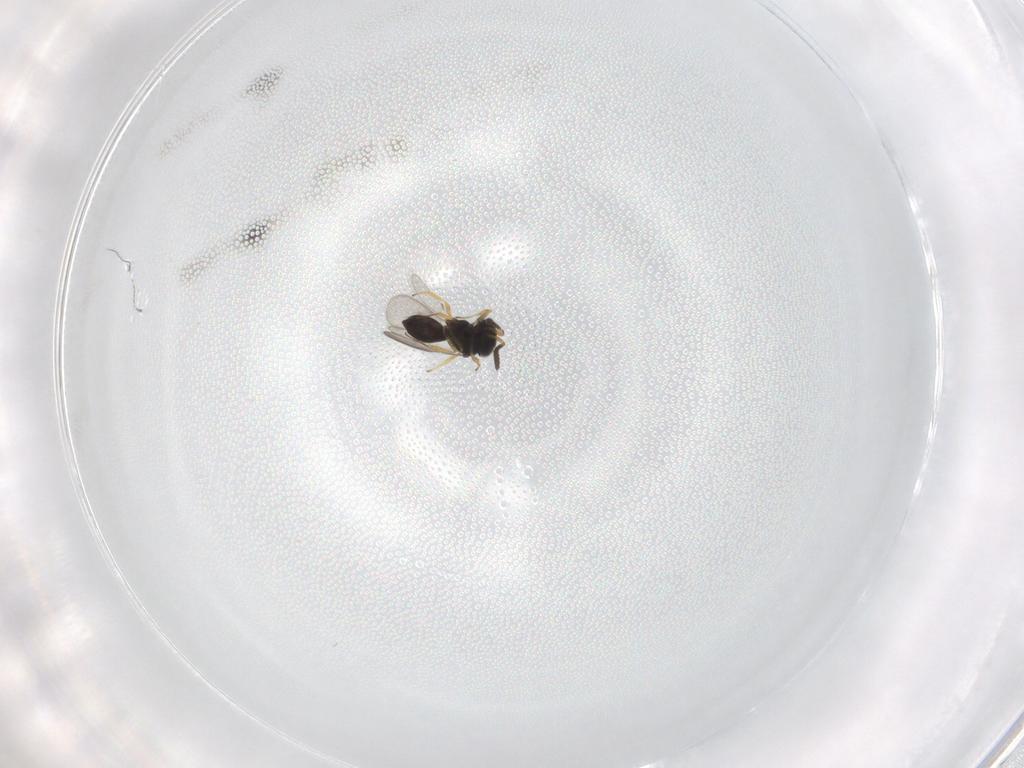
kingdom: Animalia
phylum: Arthropoda
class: Insecta
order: Hymenoptera
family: Scelionidae
